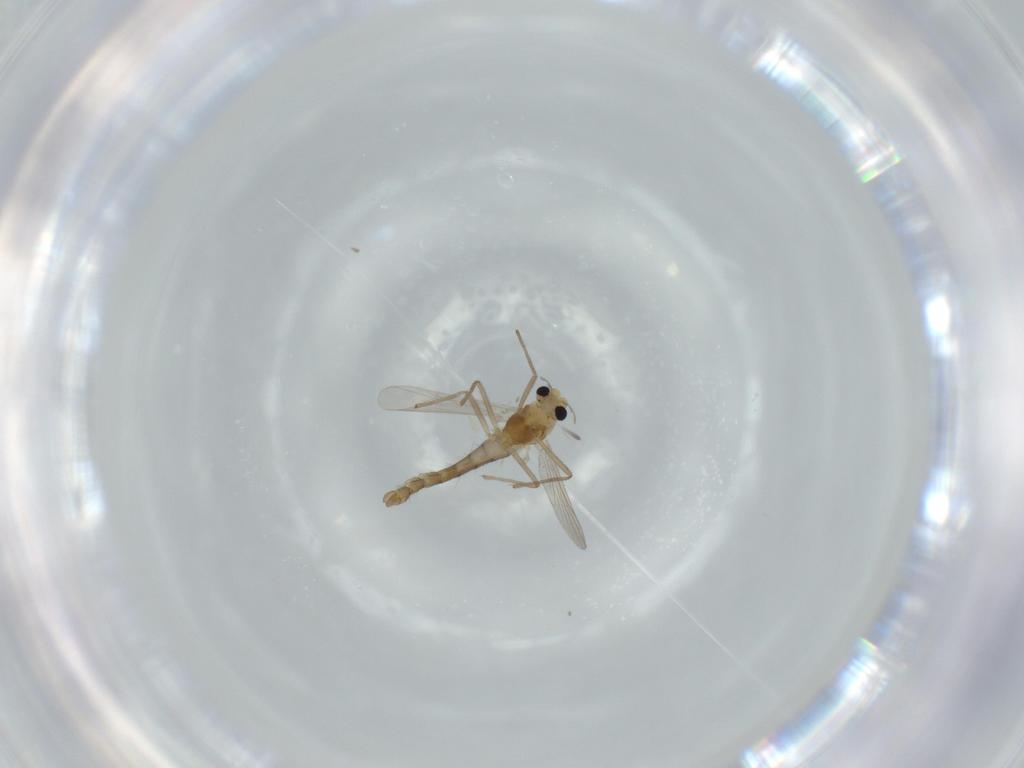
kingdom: Animalia
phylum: Arthropoda
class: Insecta
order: Diptera
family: Chironomidae
